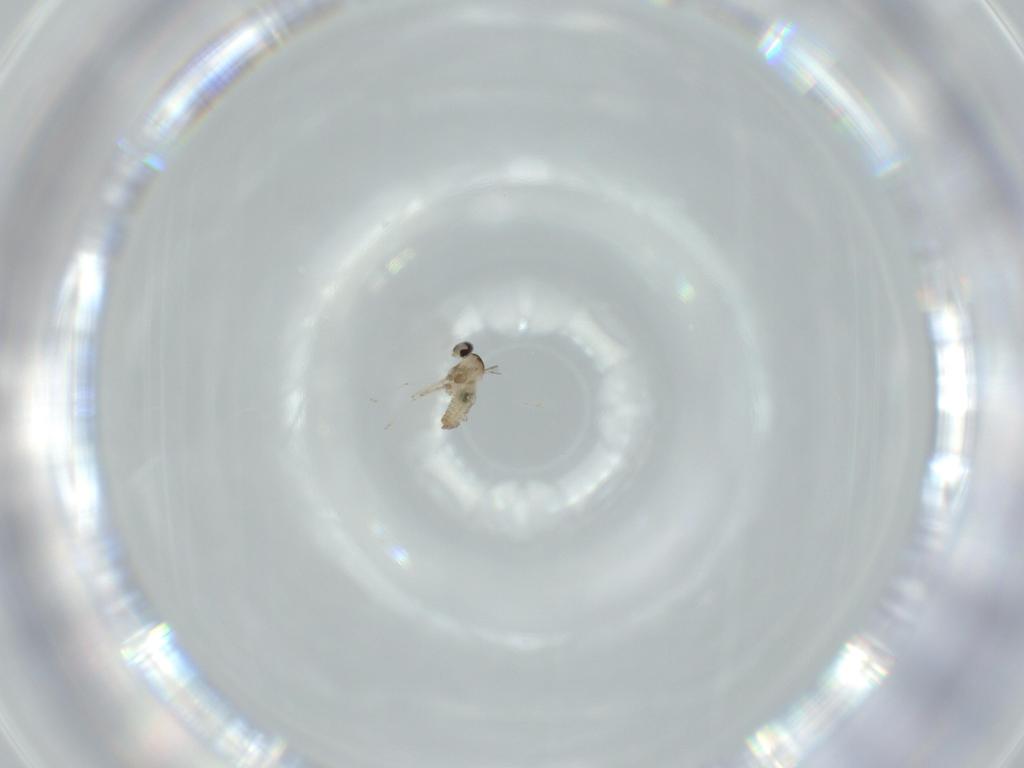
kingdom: Animalia
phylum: Arthropoda
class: Insecta
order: Diptera
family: Cecidomyiidae
